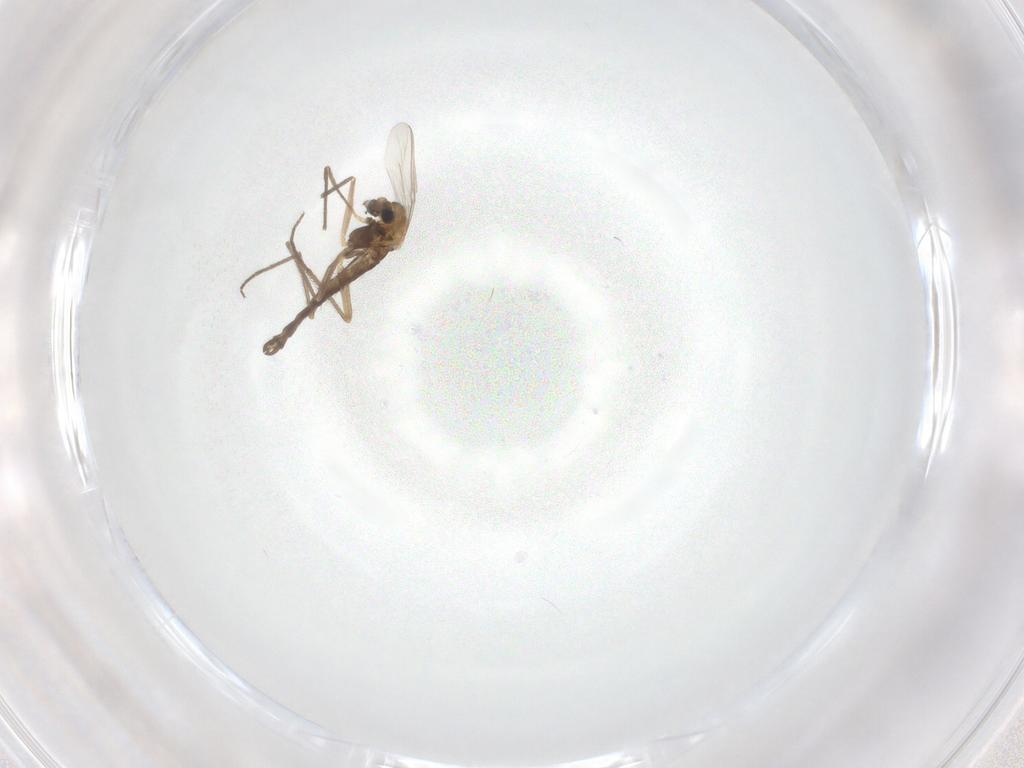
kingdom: Animalia
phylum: Arthropoda
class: Insecta
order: Diptera
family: Chironomidae
